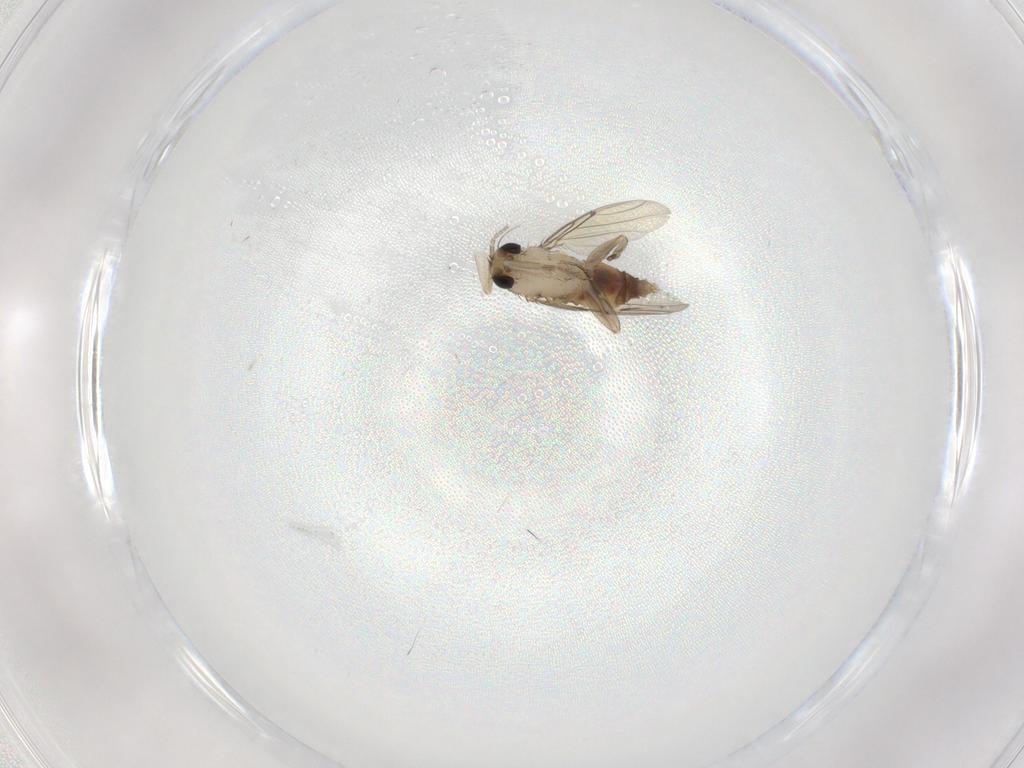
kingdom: Animalia
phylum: Arthropoda
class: Insecta
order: Diptera
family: Phoridae
